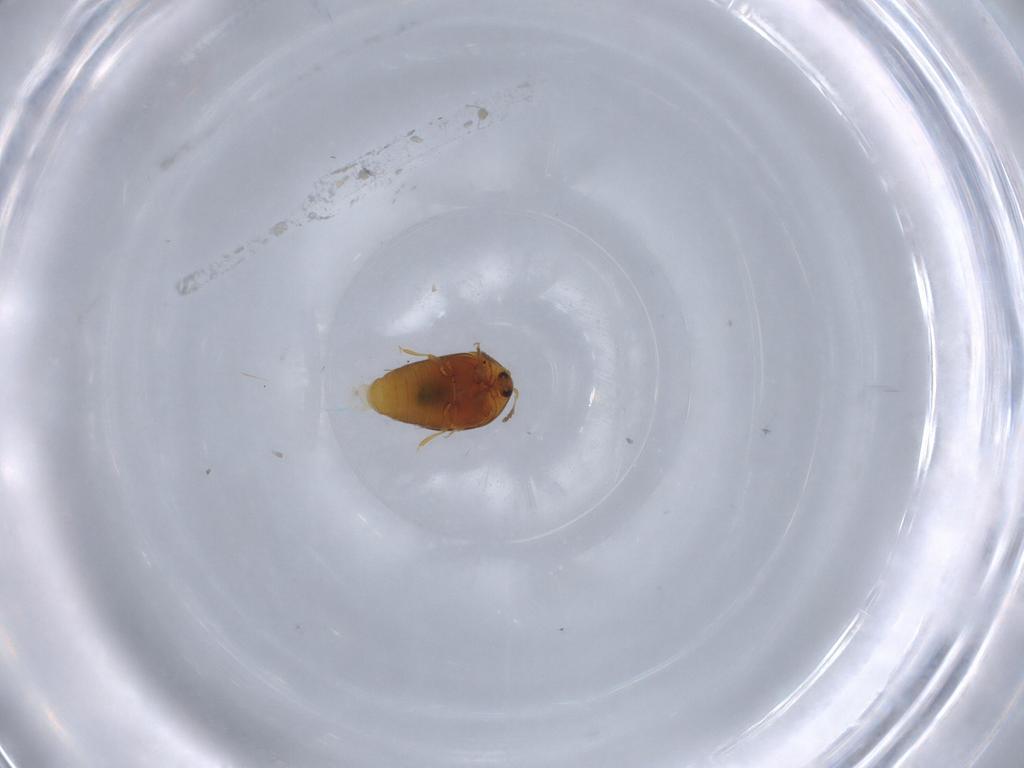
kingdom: Animalia
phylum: Arthropoda
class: Insecta
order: Coleoptera
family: Corylophidae
